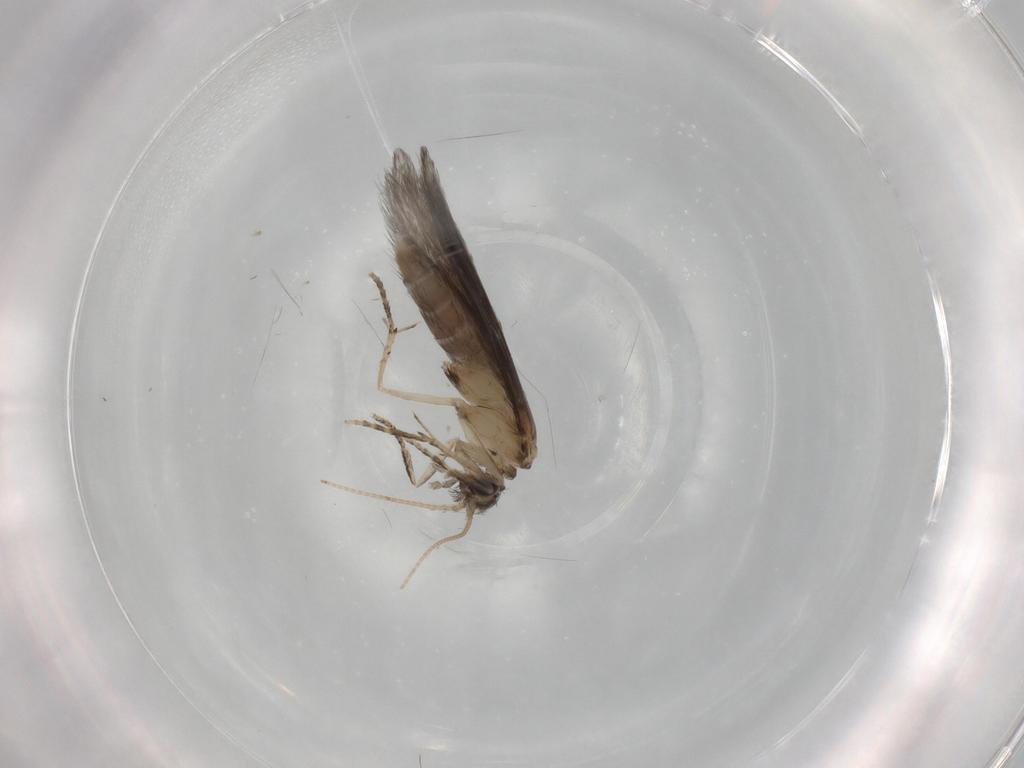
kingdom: Animalia
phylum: Arthropoda
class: Insecta
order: Trichoptera
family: Hydroptilidae
